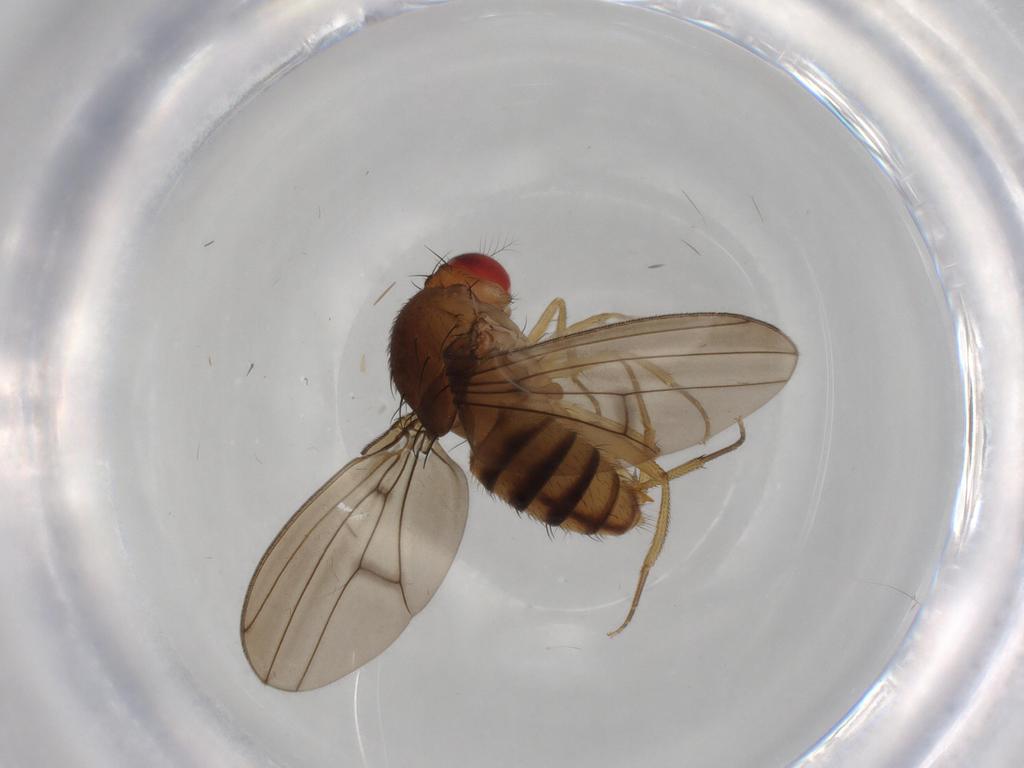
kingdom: Animalia
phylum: Arthropoda
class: Insecta
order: Diptera
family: Drosophilidae
